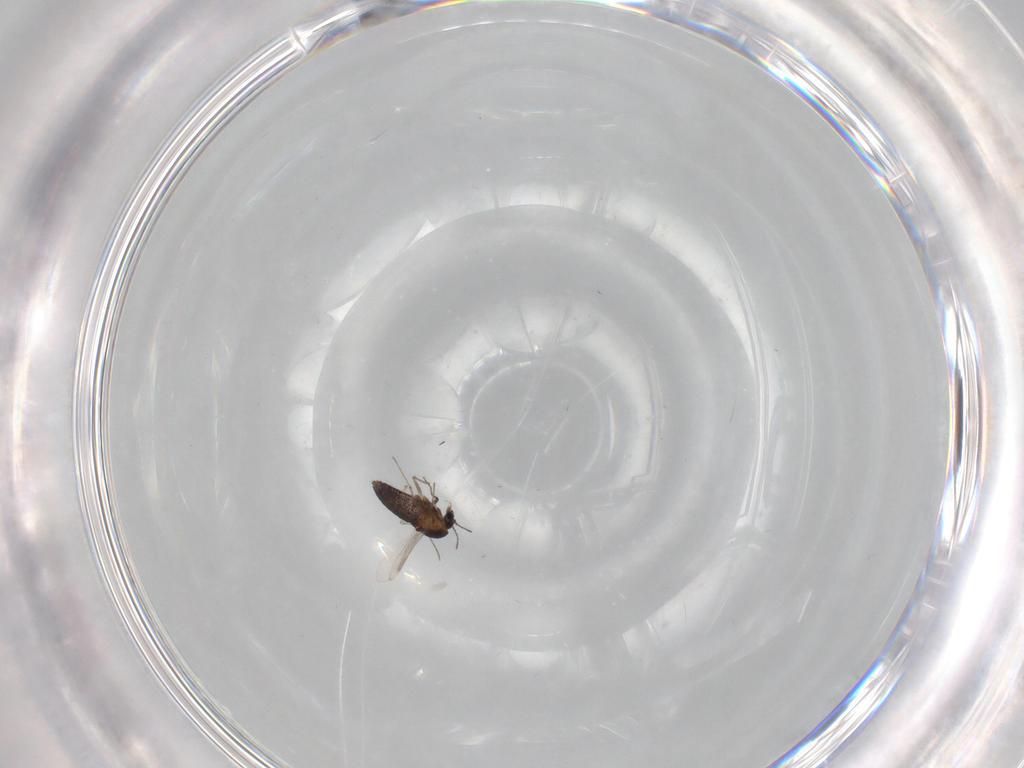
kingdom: Animalia
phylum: Arthropoda
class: Insecta
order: Diptera
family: Chironomidae
